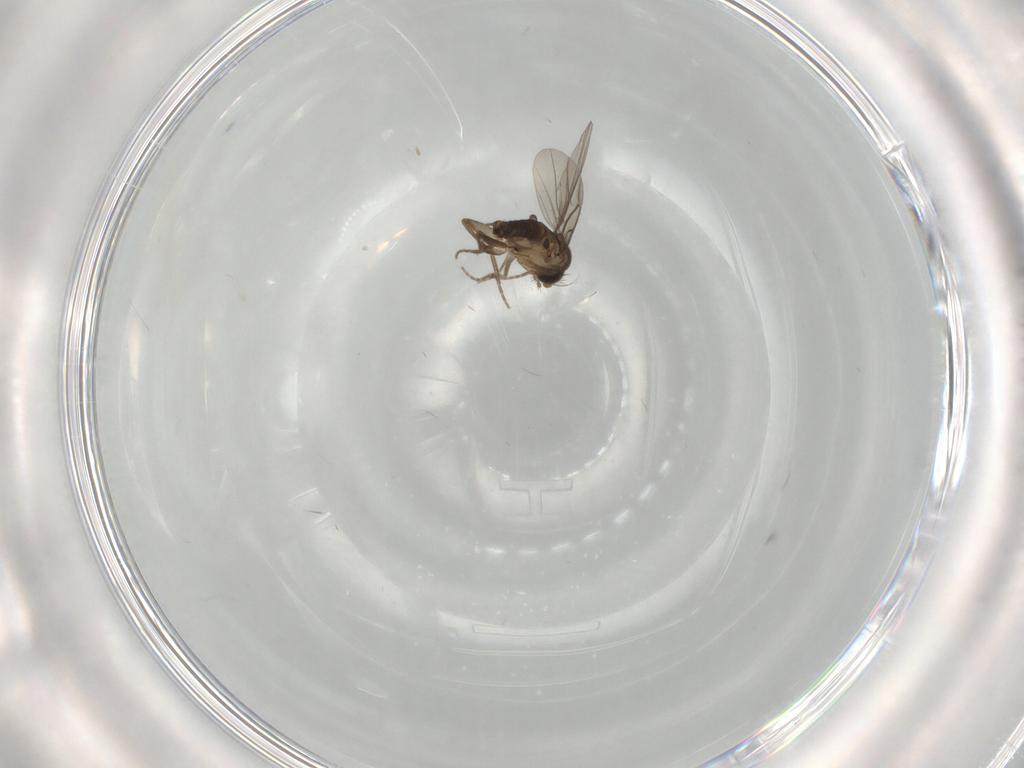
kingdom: Animalia
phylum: Arthropoda
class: Insecta
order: Diptera
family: Phoridae
